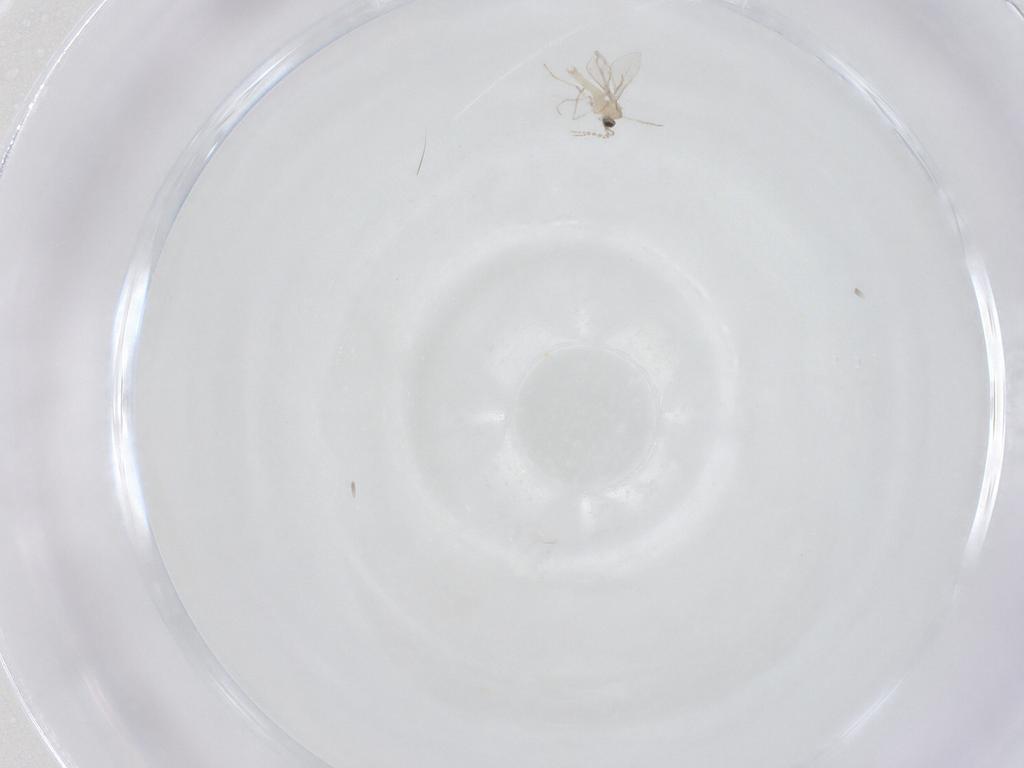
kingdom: Animalia
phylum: Arthropoda
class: Insecta
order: Diptera
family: Cecidomyiidae
